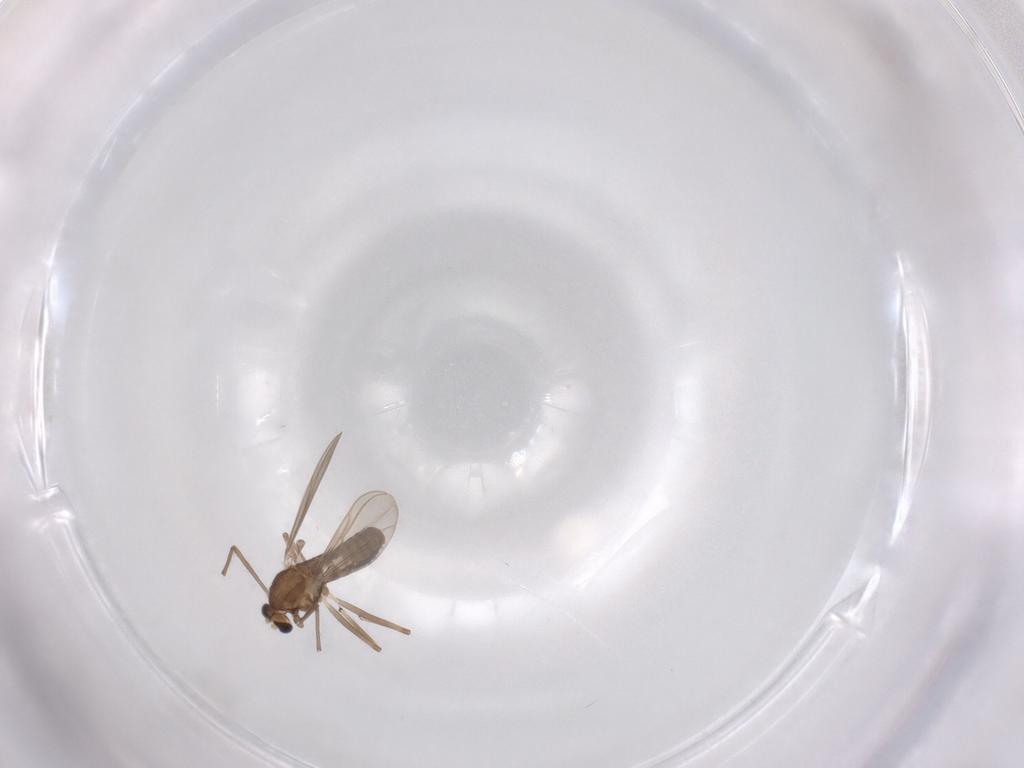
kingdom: Animalia
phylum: Arthropoda
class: Insecta
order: Diptera
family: Chironomidae
